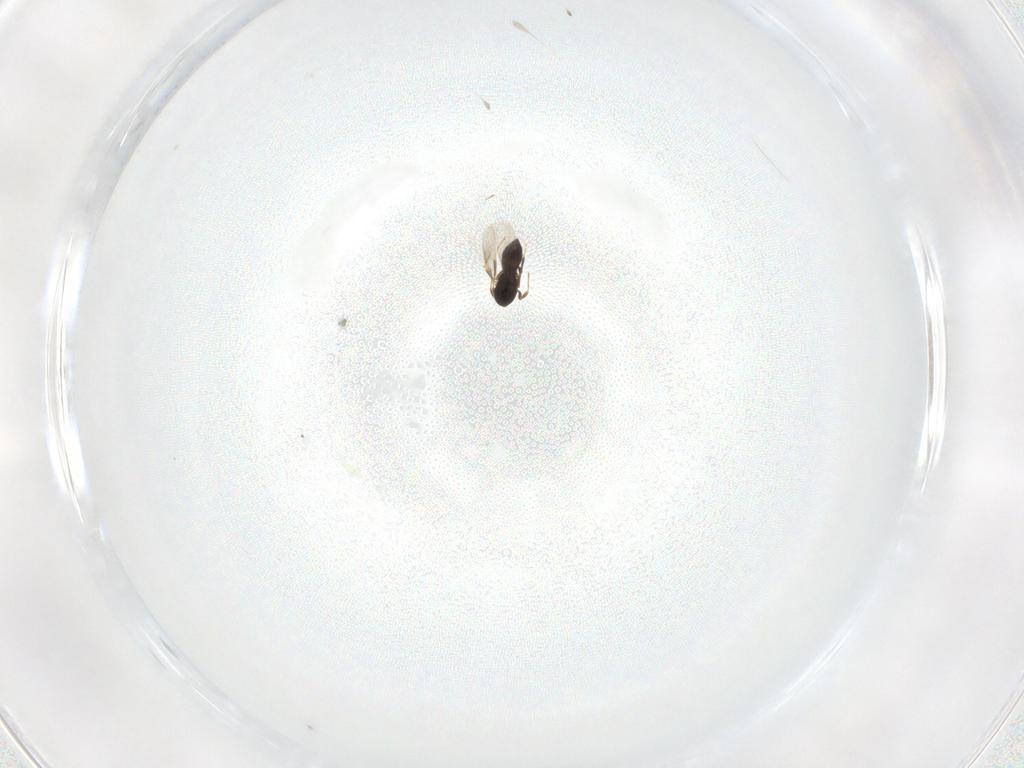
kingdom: Animalia
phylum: Arthropoda
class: Insecta
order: Hymenoptera
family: Scelionidae
